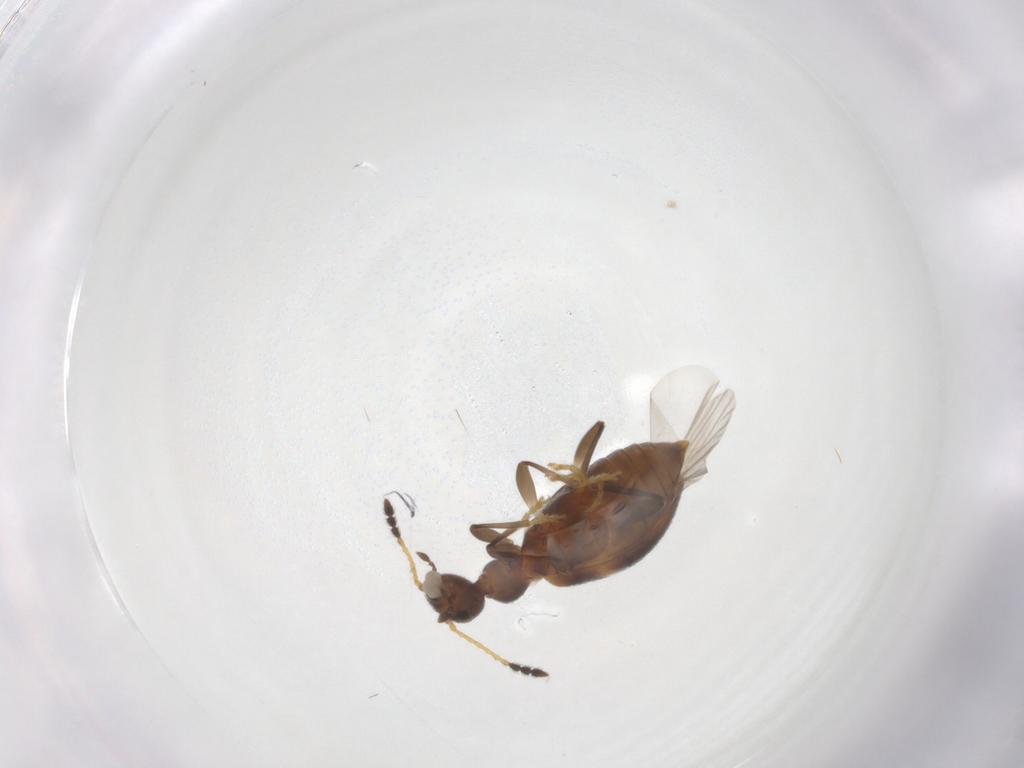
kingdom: Animalia
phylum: Arthropoda
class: Insecta
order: Coleoptera
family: Anthicidae
